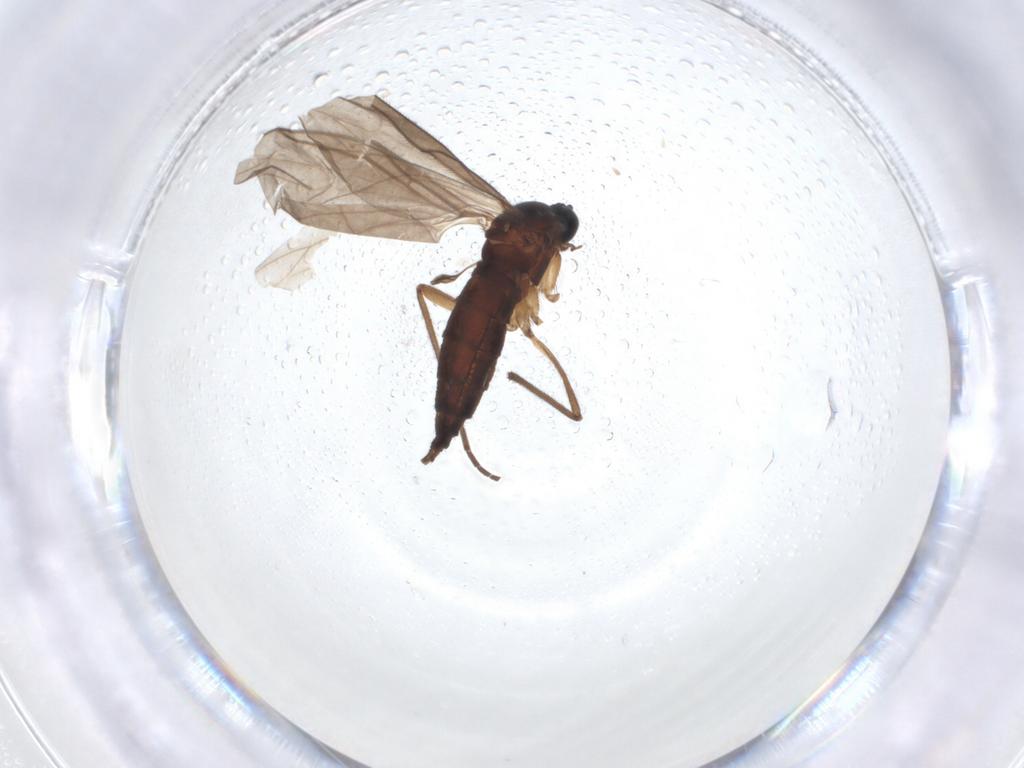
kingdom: Animalia
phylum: Arthropoda
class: Insecta
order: Diptera
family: Sciaridae
